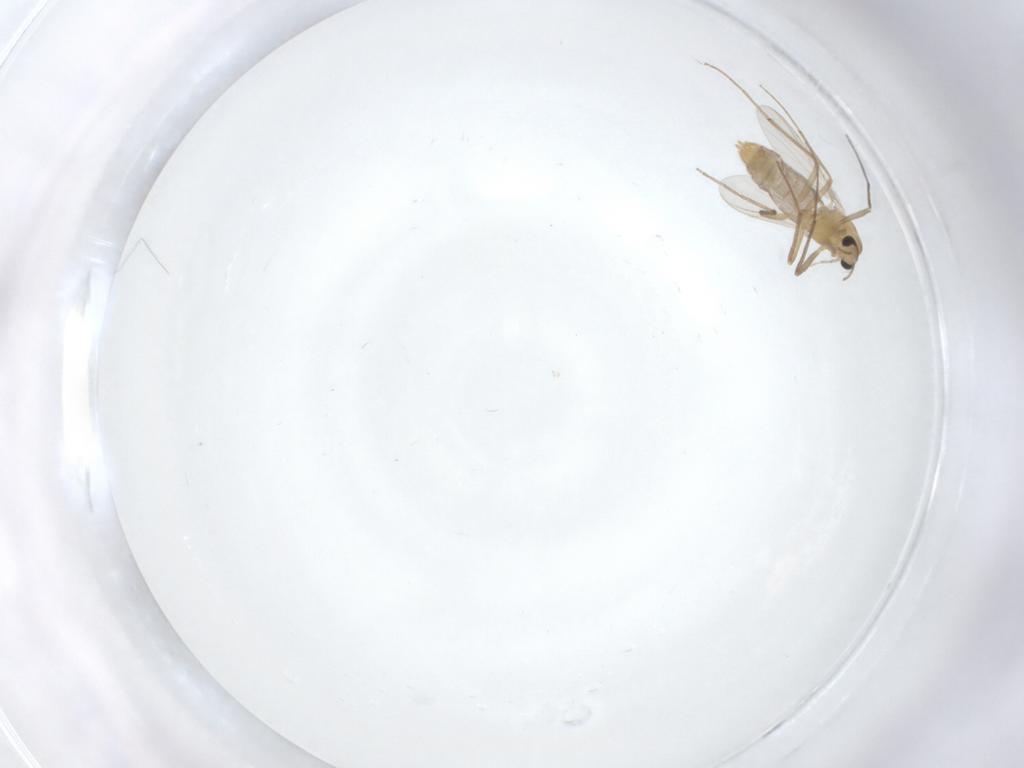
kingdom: Animalia
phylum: Arthropoda
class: Insecta
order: Diptera
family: Chironomidae
